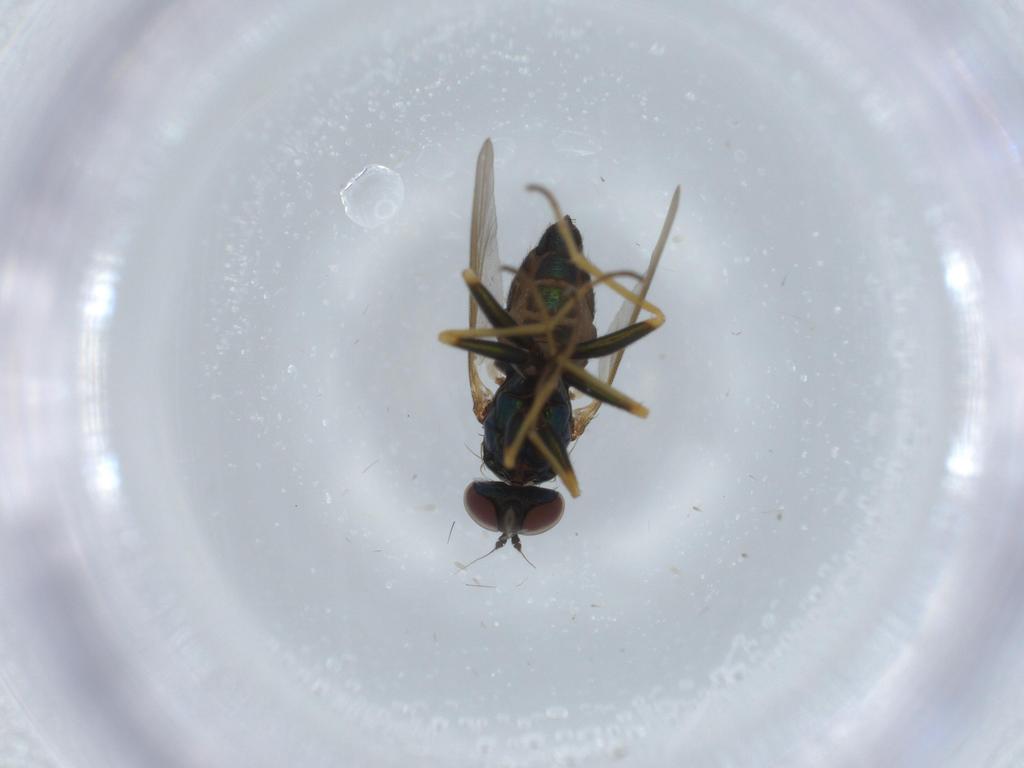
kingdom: Animalia
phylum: Arthropoda
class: Insecta
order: Diptera
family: Dolichopodidae
